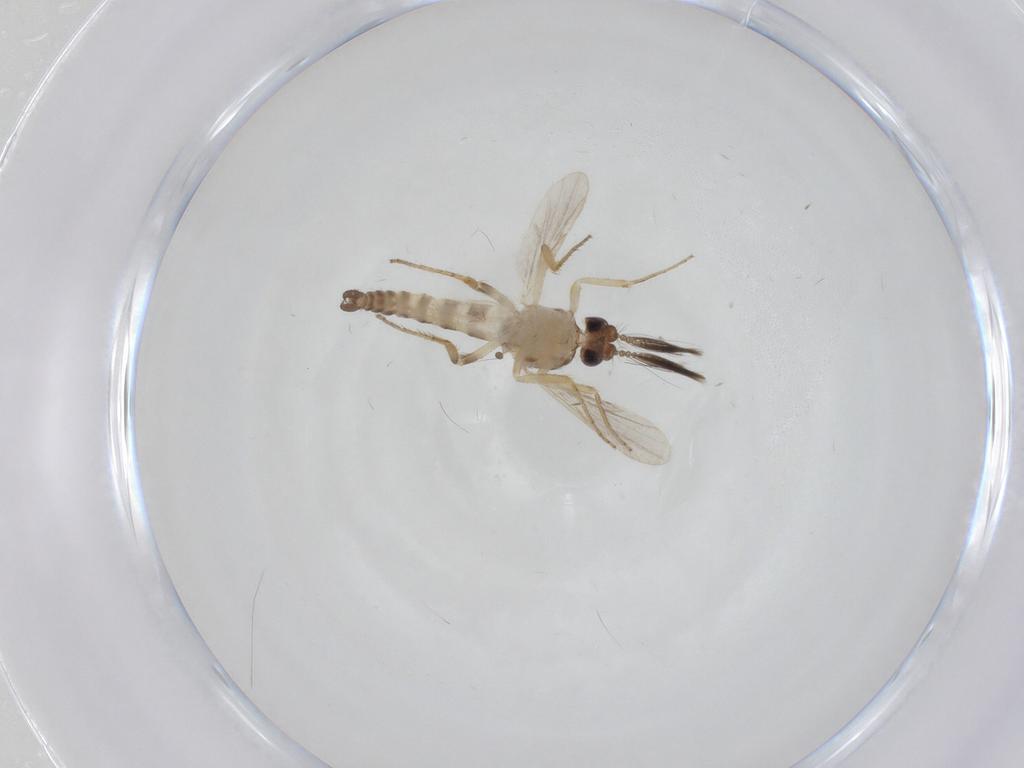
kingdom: Animalia
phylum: Arthropoda
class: Insecta
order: Diptera
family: Ceratopogonidae
